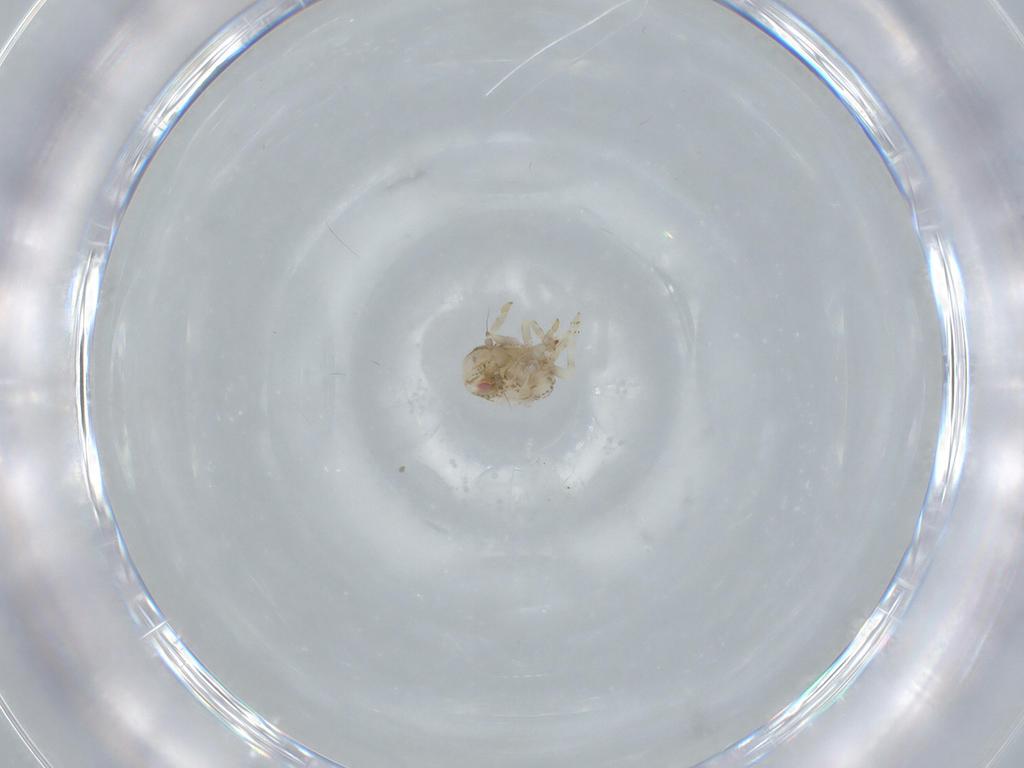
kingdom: Animalia
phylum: Arthropoda
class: Insecta
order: Hemiptera
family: Acanaloniidae
